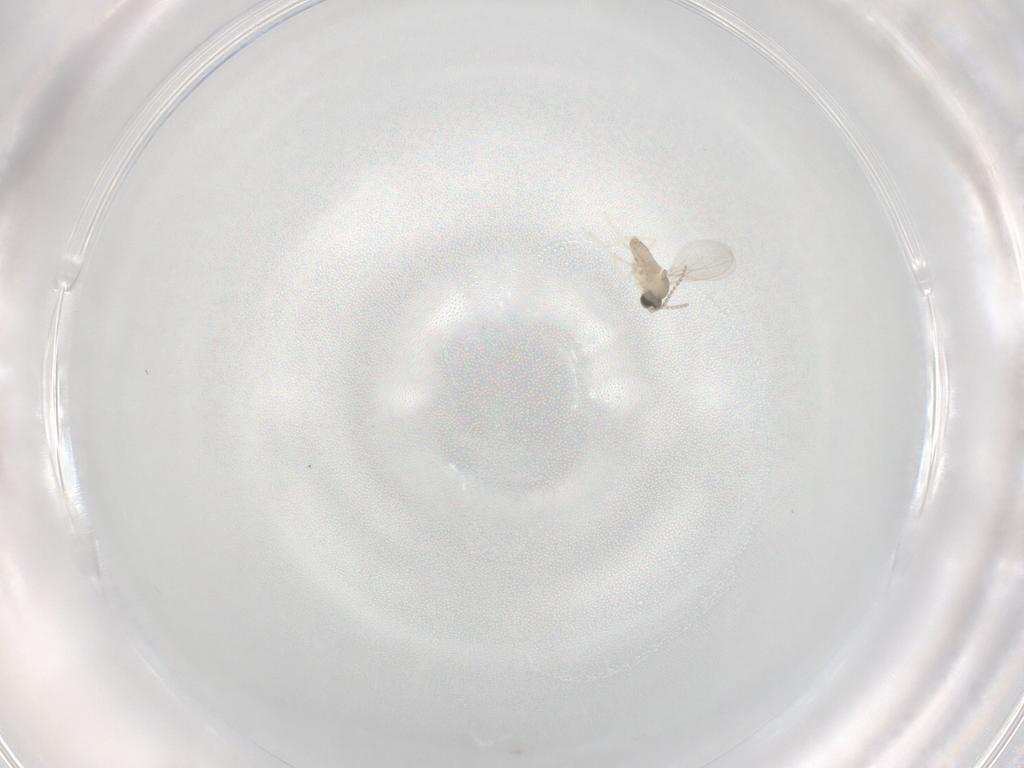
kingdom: Animalia
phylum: Arthropoda
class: Insecta
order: Diptera
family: Cecidomyiidae
